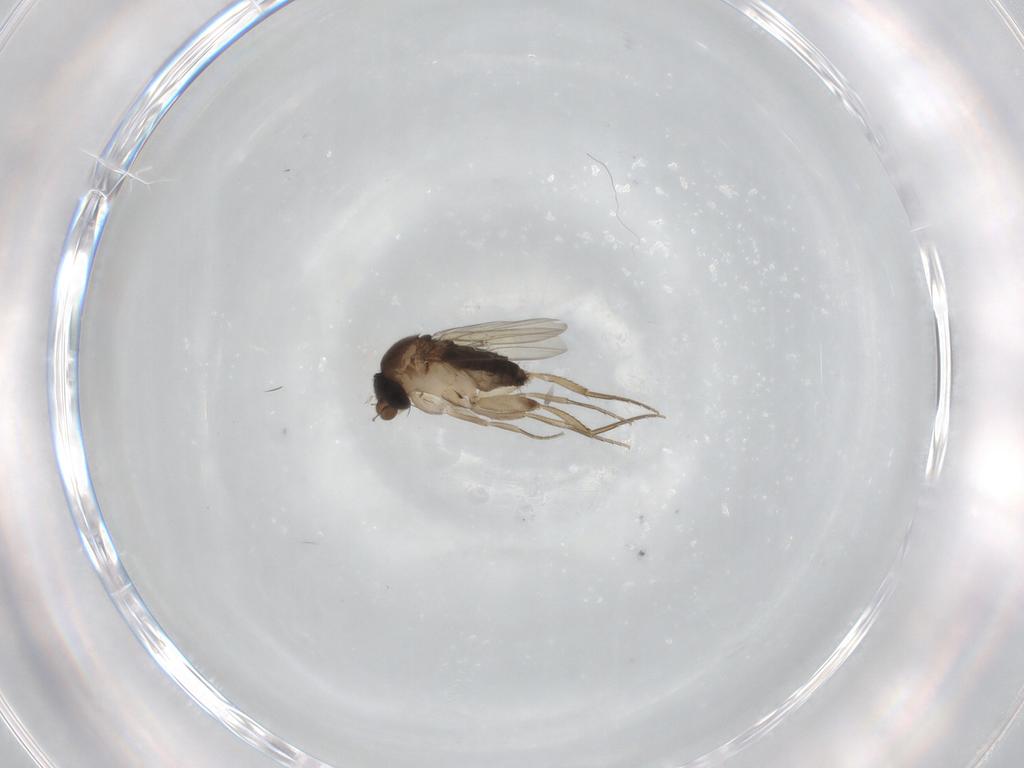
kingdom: Animalia
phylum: Arthropoda
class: Insecta
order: Diptera
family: Phoridae
